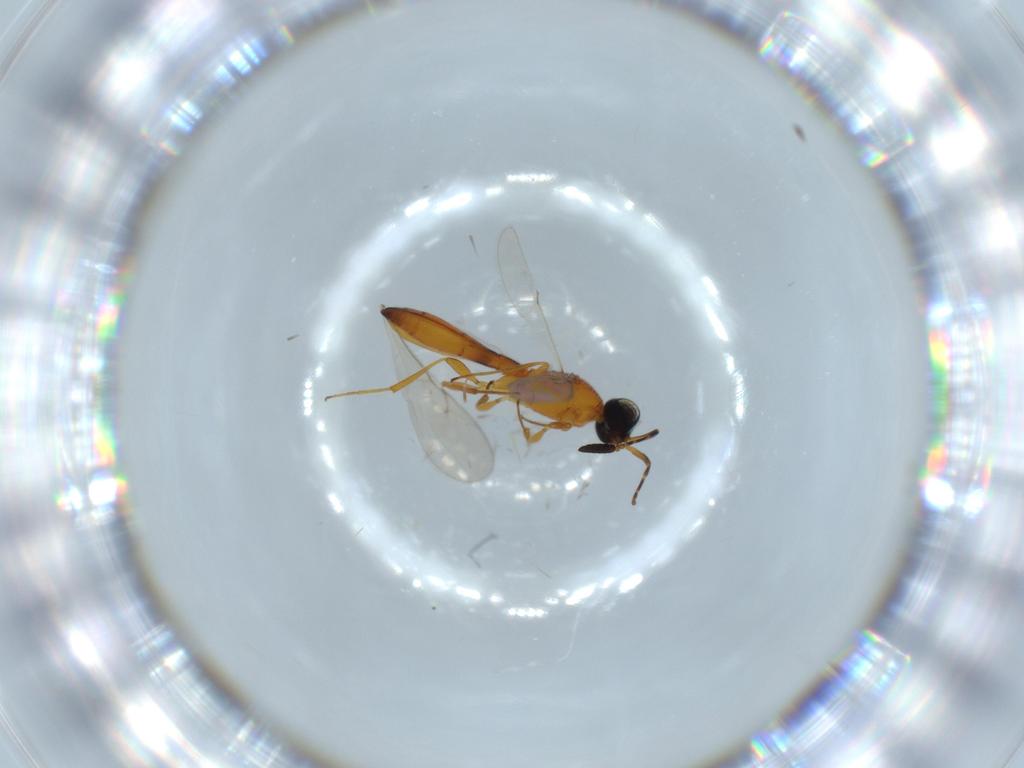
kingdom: Animalia
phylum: Arthropoda
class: Insecta
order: Hymenoptera
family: Scelionidae
